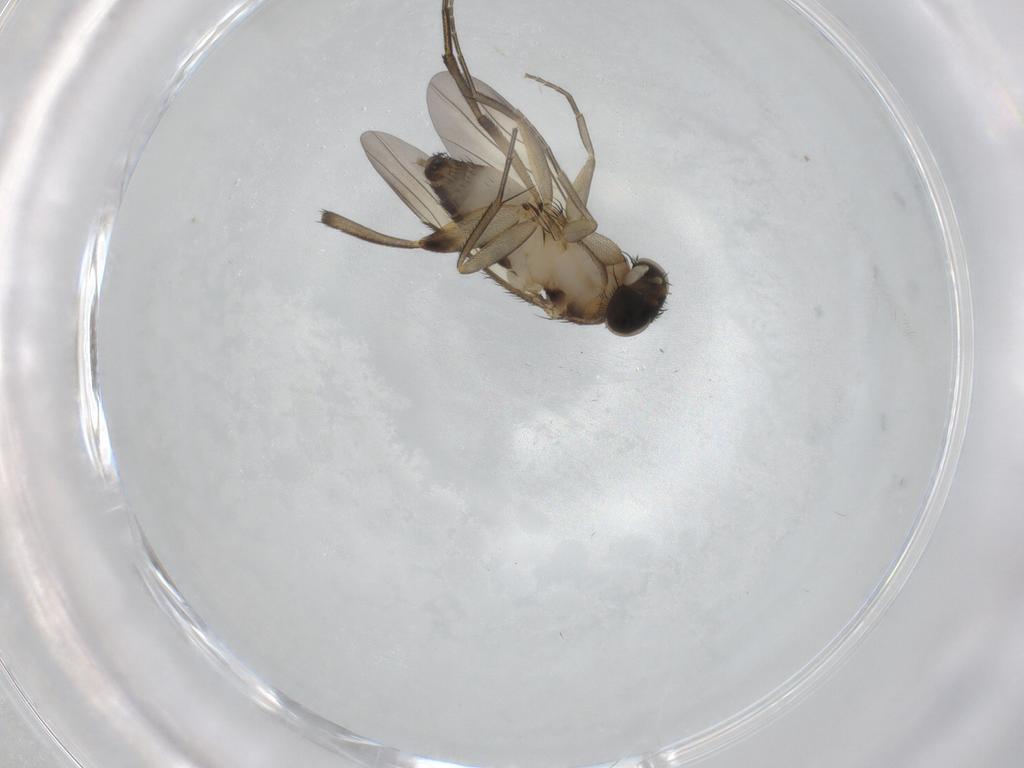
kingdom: Animalia
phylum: Arthropoda
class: Insecta
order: Diptera
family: Phoridae
